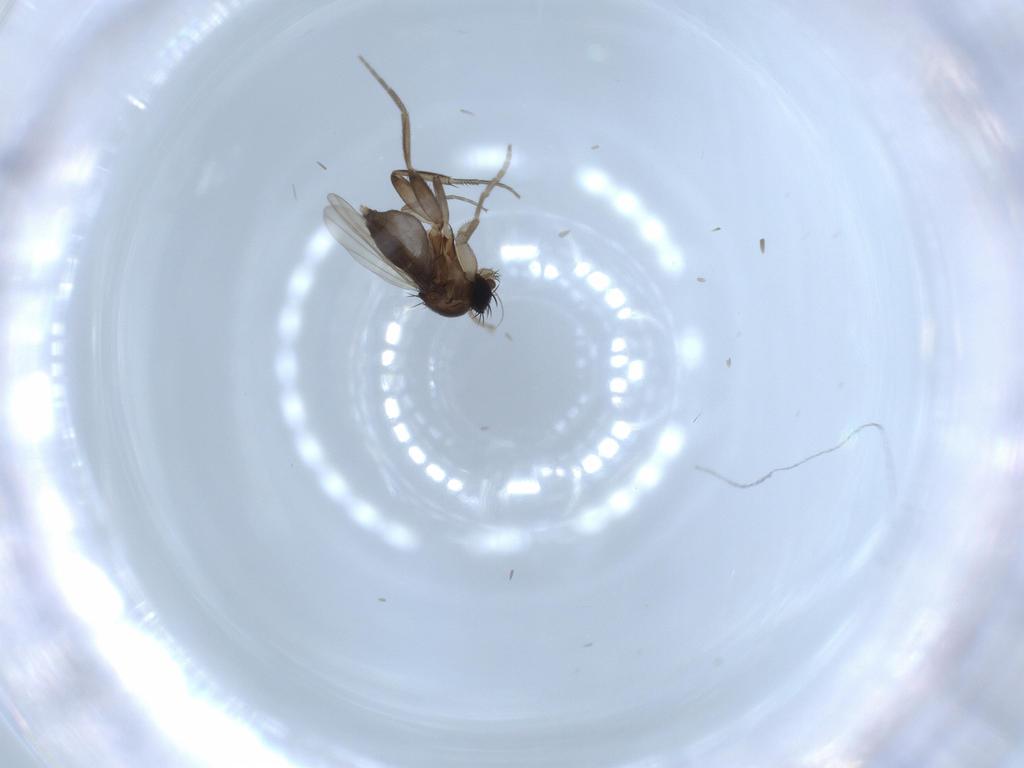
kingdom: Animalia
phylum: Arthropoda
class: Insecta
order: Diptera
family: Phoridae
